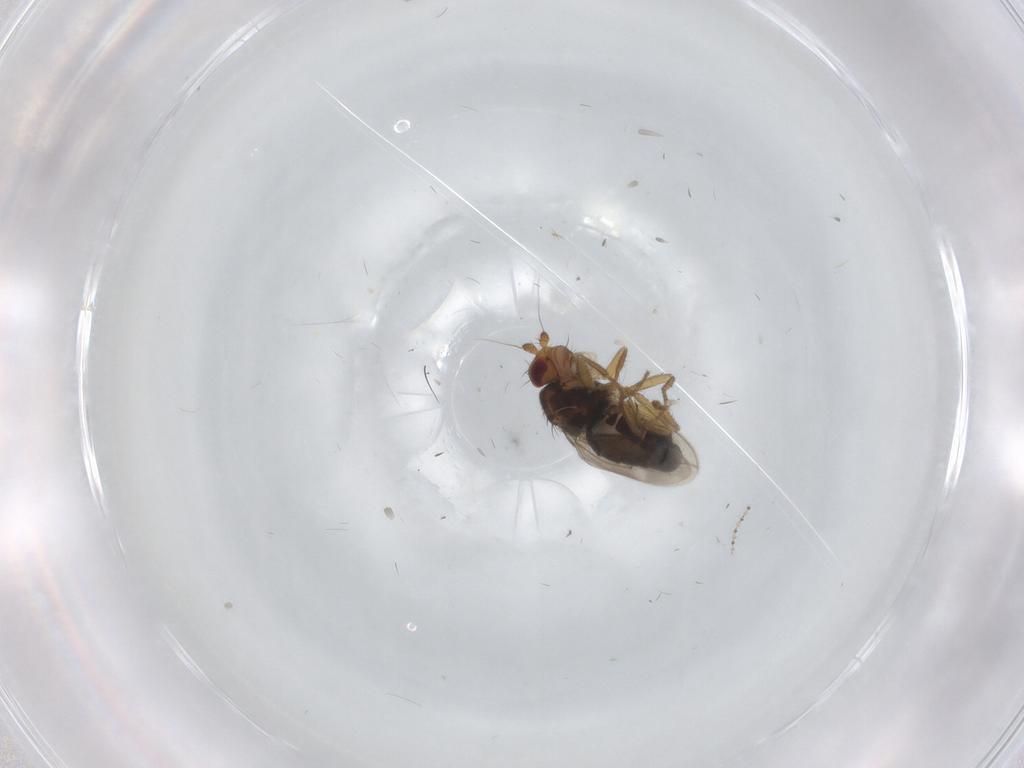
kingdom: Animalia
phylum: Arthropoda
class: Insecta
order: Diptera
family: Sphaeroceridae
